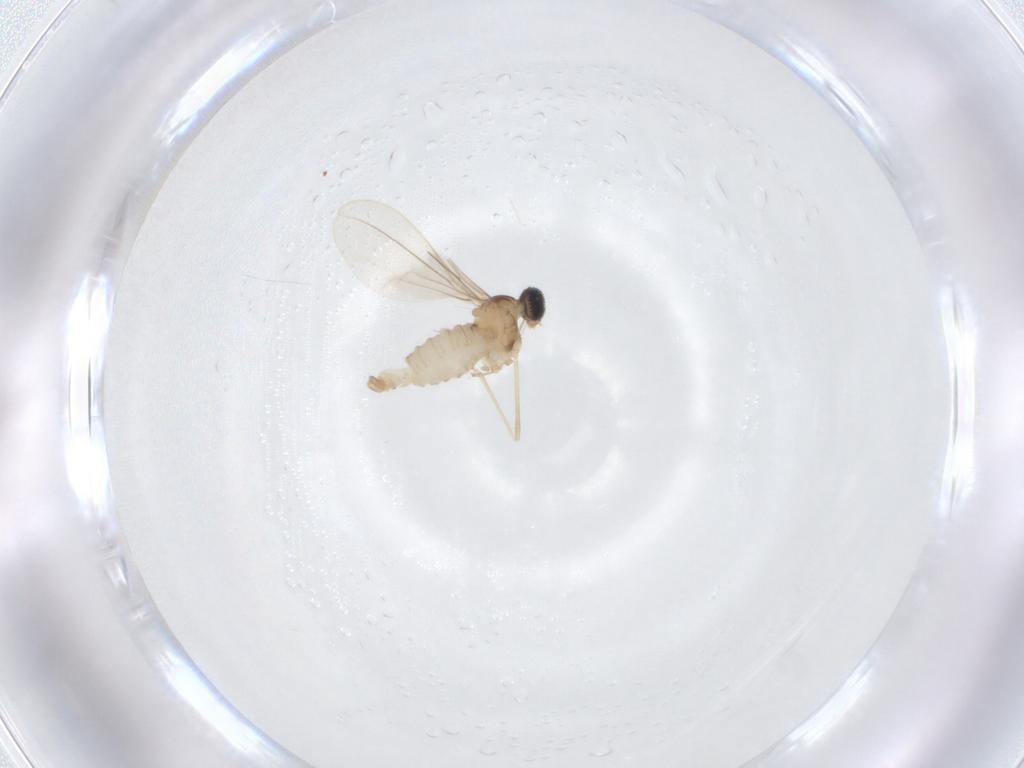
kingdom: Animalia
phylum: Arthropoda
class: Insecta
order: Diptera
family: Cecidomyiidae
